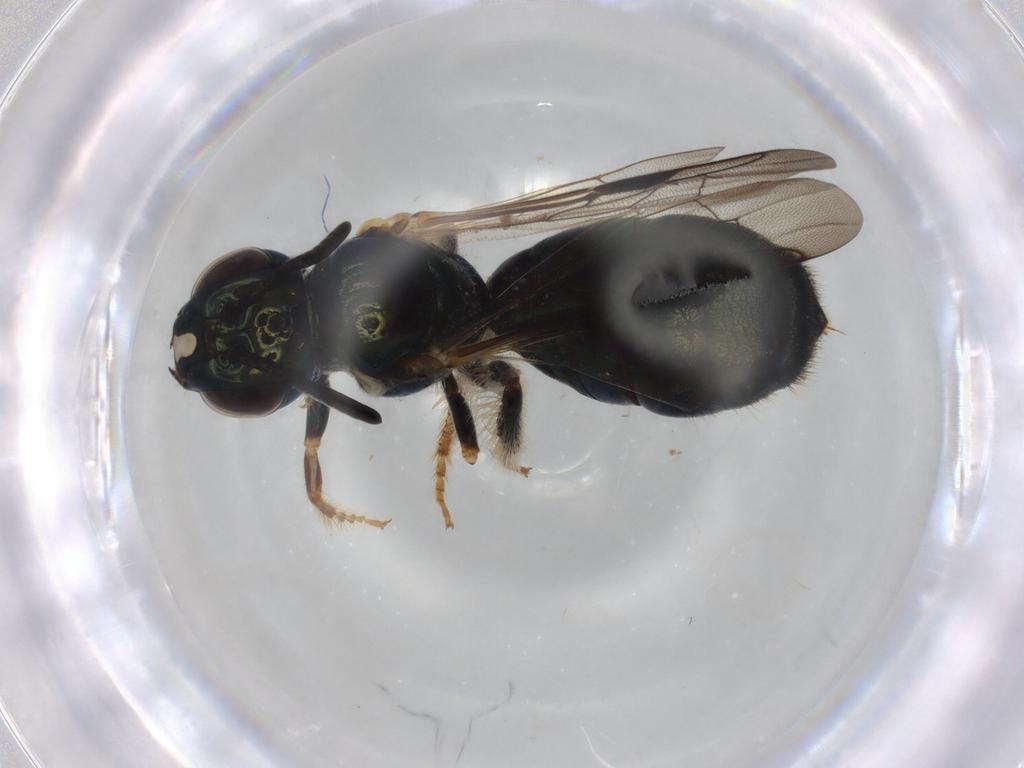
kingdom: Animalia
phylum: Arthropoda
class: Insecta
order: Hymenoptera
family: Apidae
